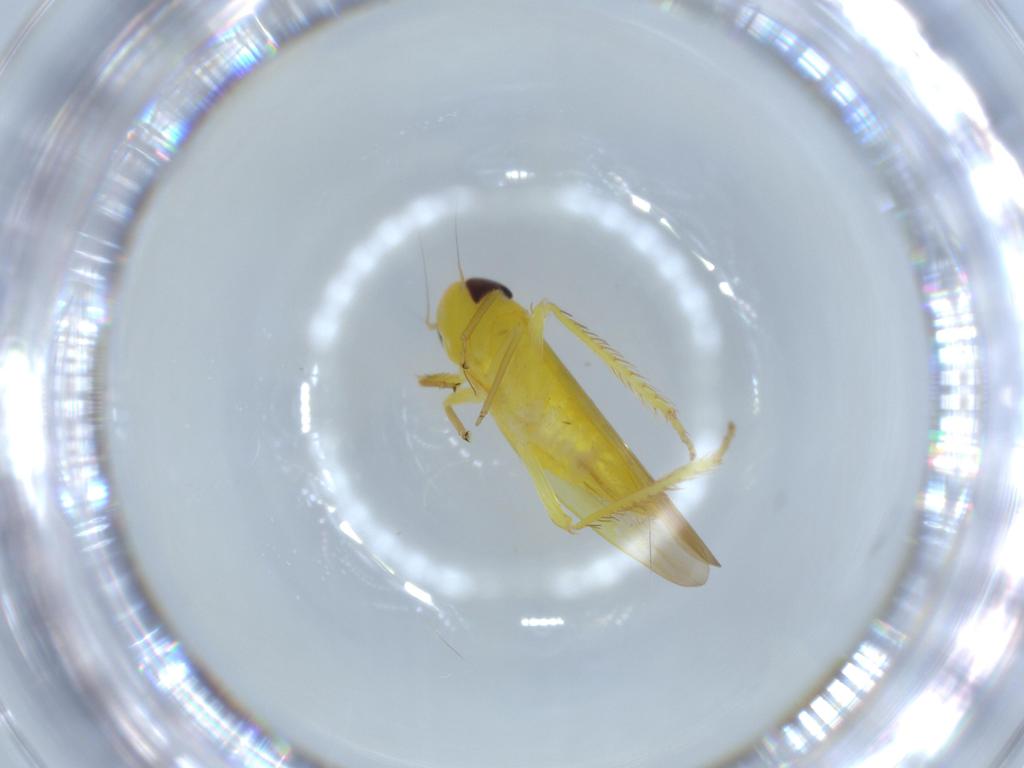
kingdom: Animalia
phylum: Arthropoda
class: Insecta
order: Hemiptera
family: Cicadellidae
